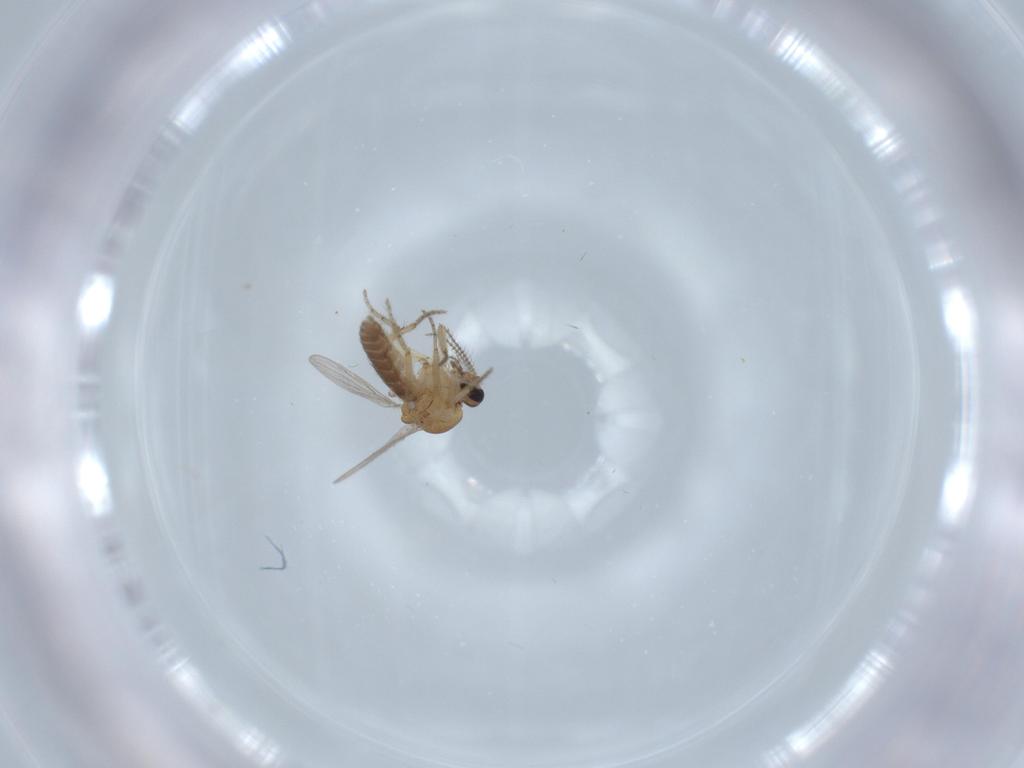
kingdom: Animalia
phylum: Arthropoda
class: Insecta
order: Diptera
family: Ceratopogonidae
